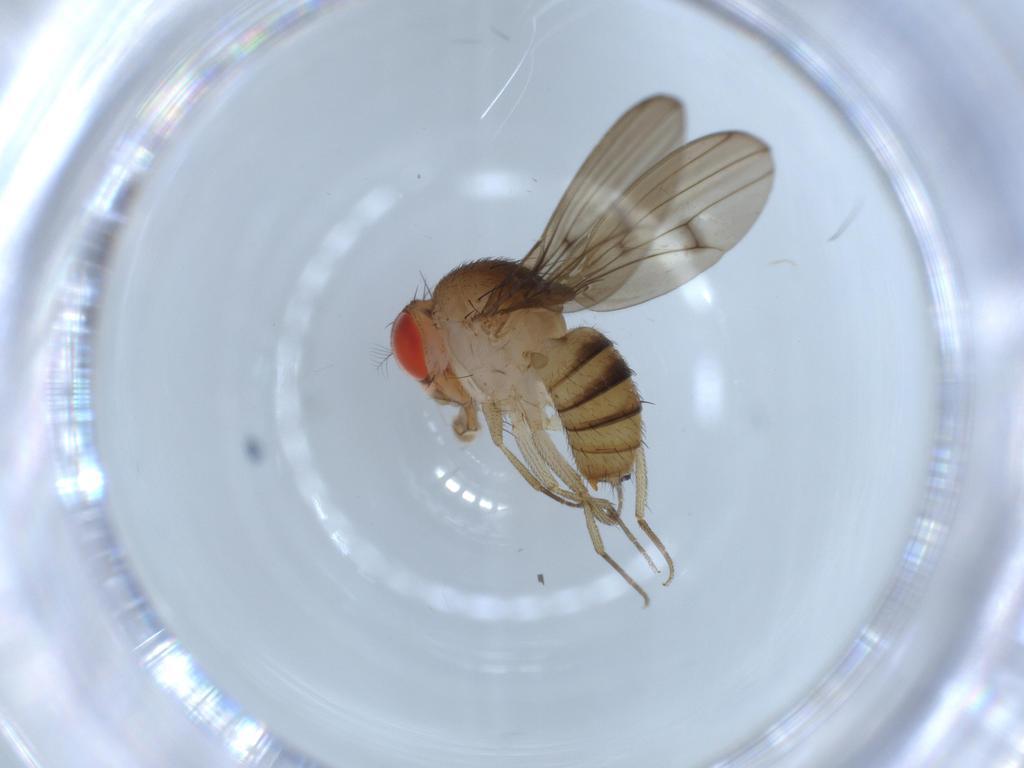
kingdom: Animalia
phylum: Arthropoda
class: Insecta
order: Diptera
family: Drosophilidae
